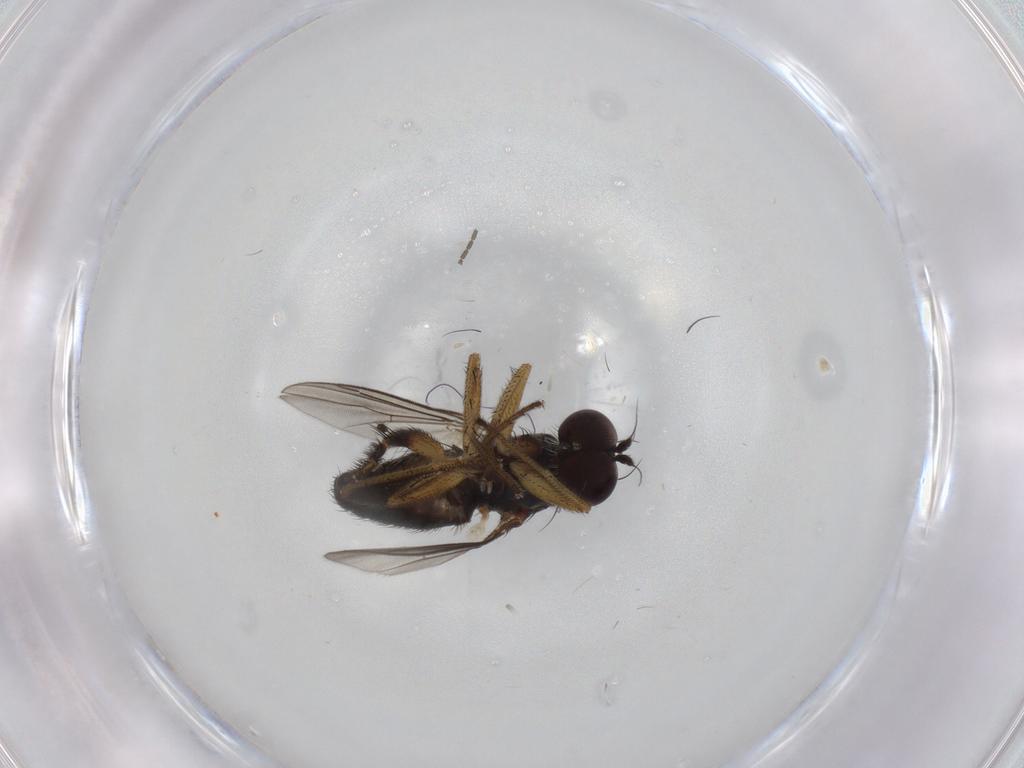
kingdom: Animalia
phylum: Arthropoda
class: Insecta
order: Diptera
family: Dolichopodidae
